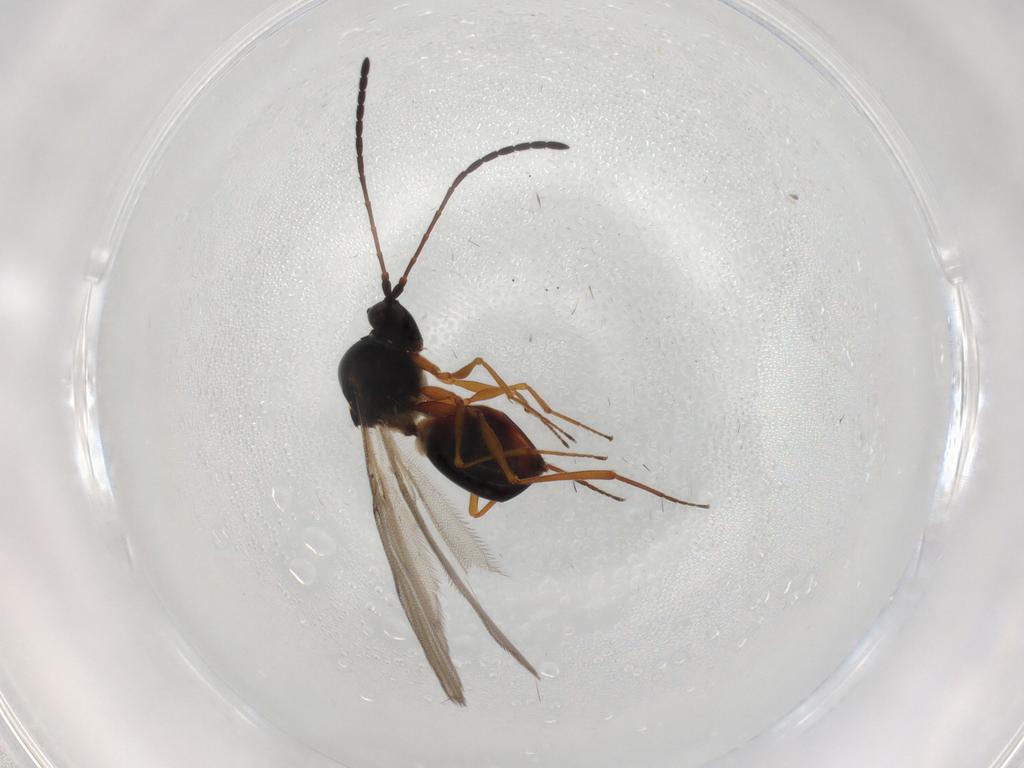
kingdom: Animalia
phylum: Arthropoda
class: Insecta
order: Hymenoptera
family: Figitidae
